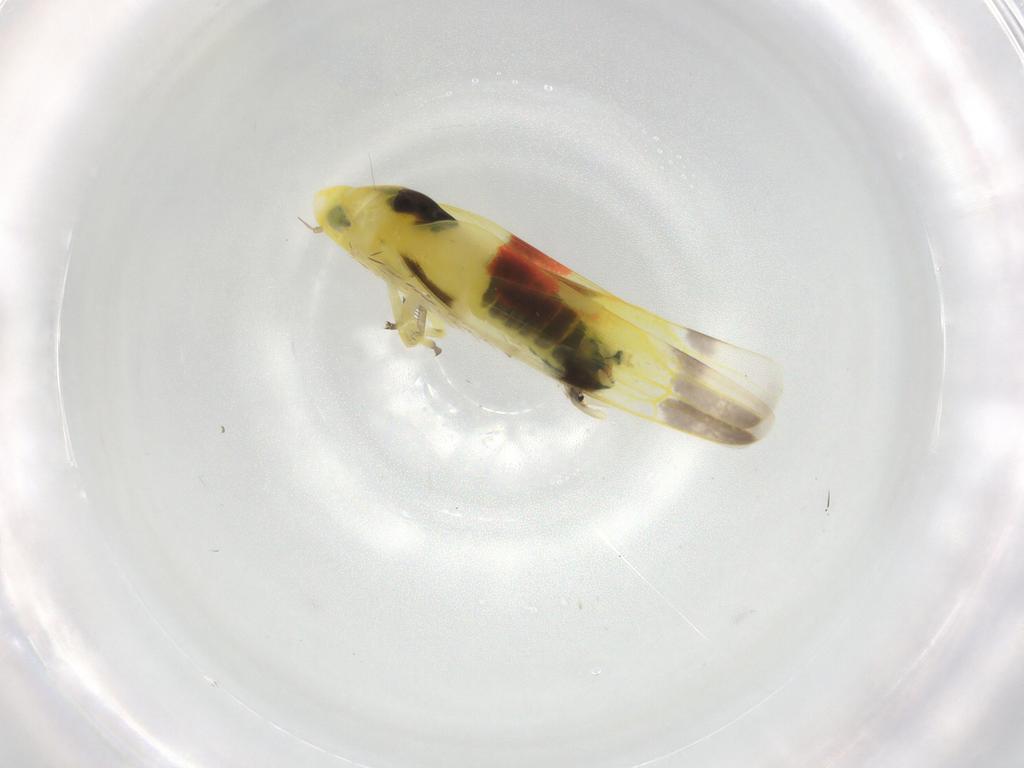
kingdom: Animalia
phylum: Arthropoda
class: Insecta
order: Hemiptera
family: Cicadellidae
